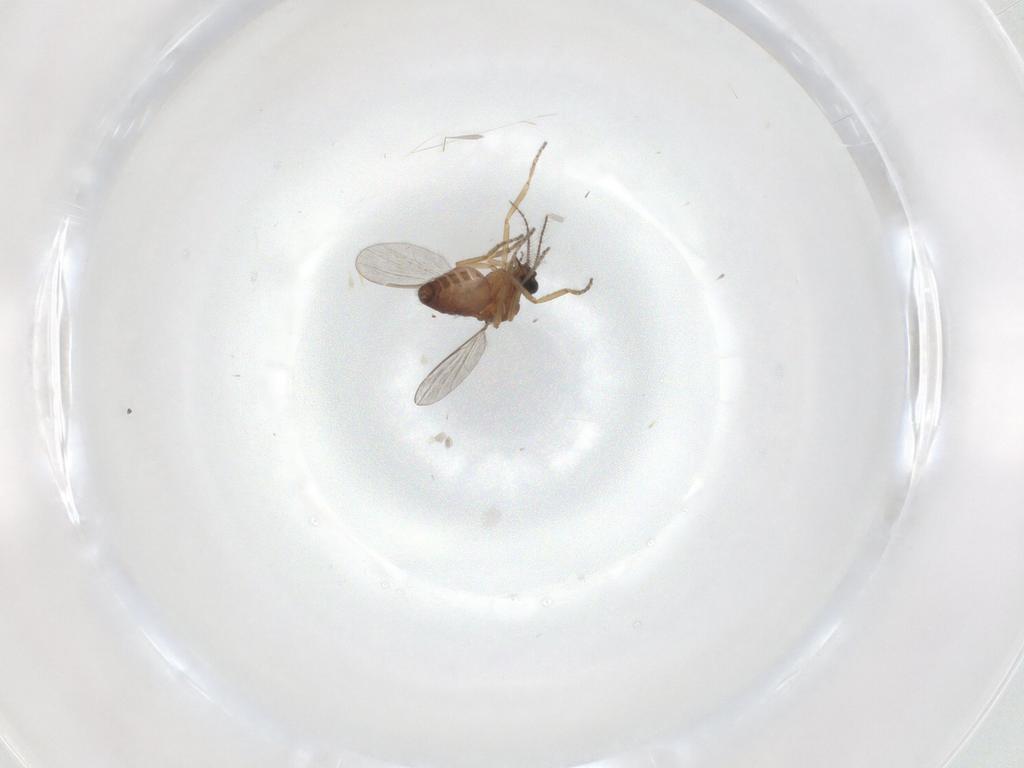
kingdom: Animalia
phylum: Arthropoda
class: Insecta
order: Diptera
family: Ceratopogonidae
